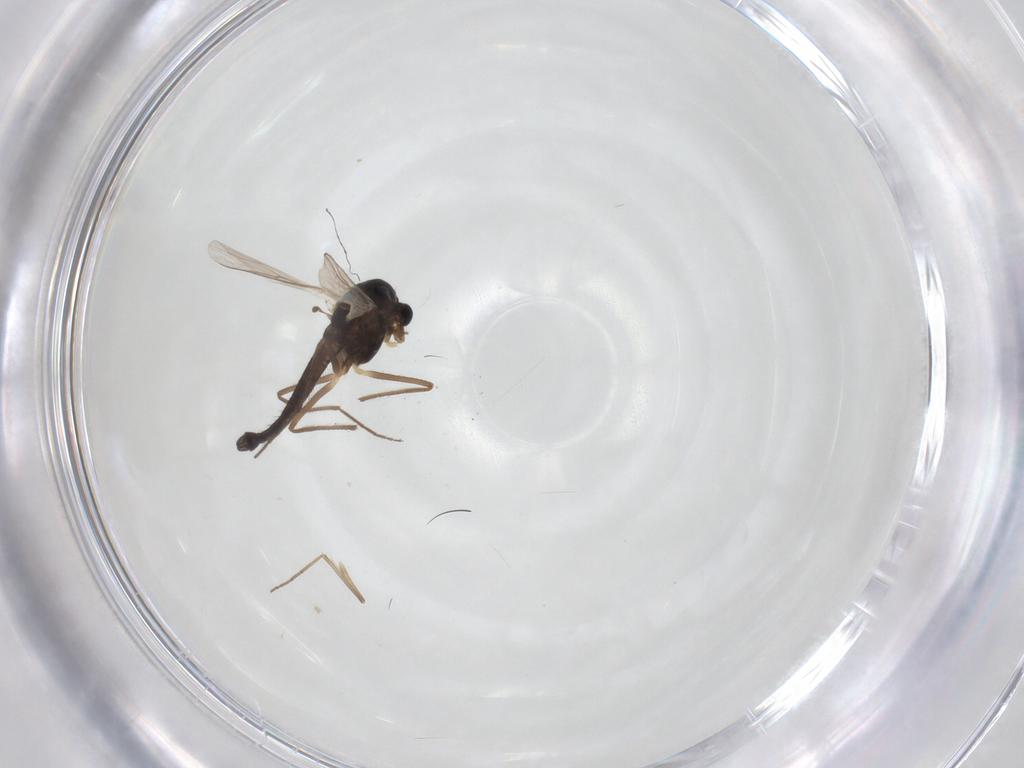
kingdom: Animalia
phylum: Arthropoda
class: Insecta
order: Diptera
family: Chironomidae
